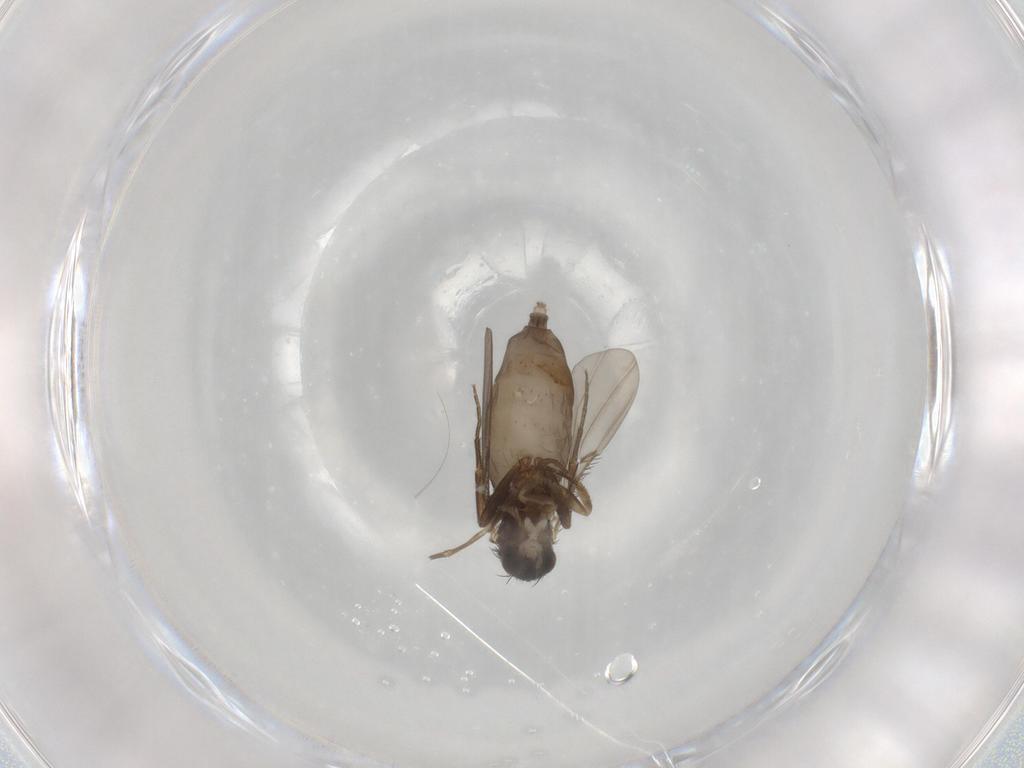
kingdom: Animalia
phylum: Arthropoda
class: Insecta
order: Diptera
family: Phoridae
